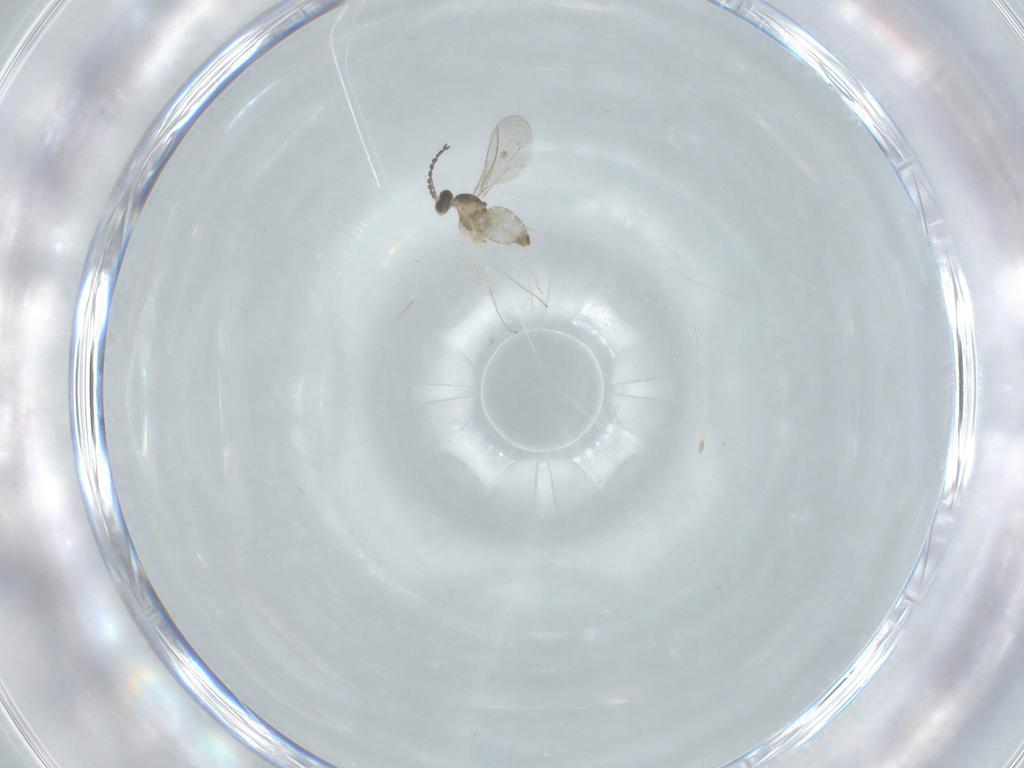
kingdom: Animalia
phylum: Arthropoda
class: Insecta
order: Diptera
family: Cecidomyiidae
